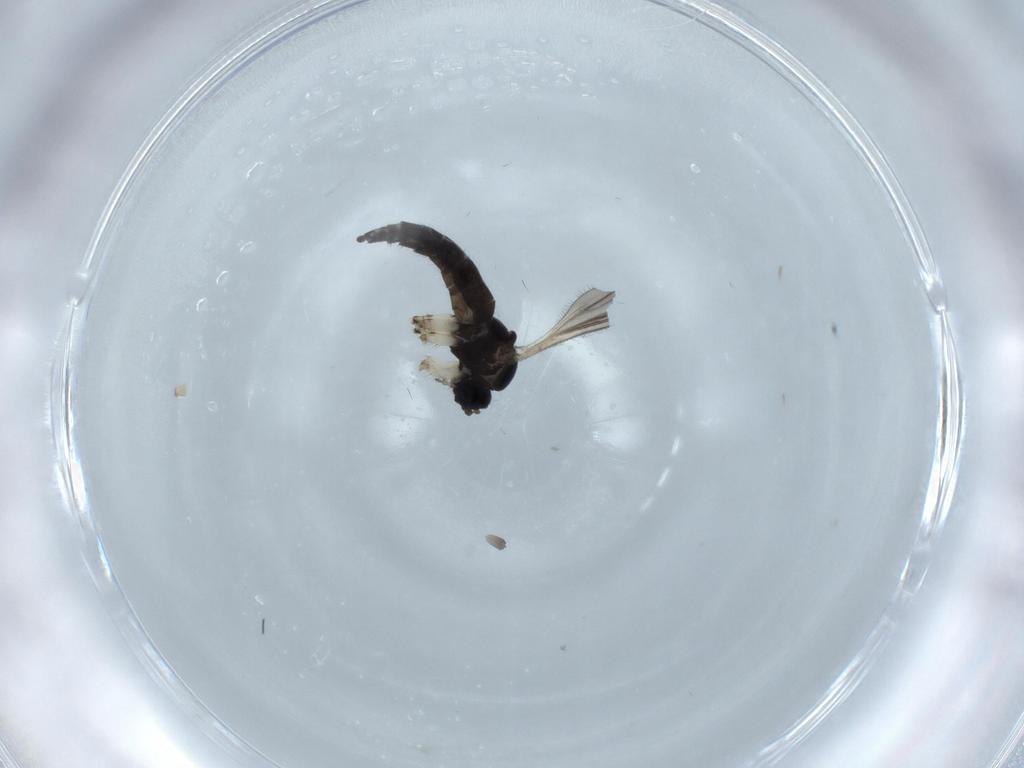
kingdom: Animalia
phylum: Arthropoda
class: Insecta
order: Diptera
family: Sciaridae
